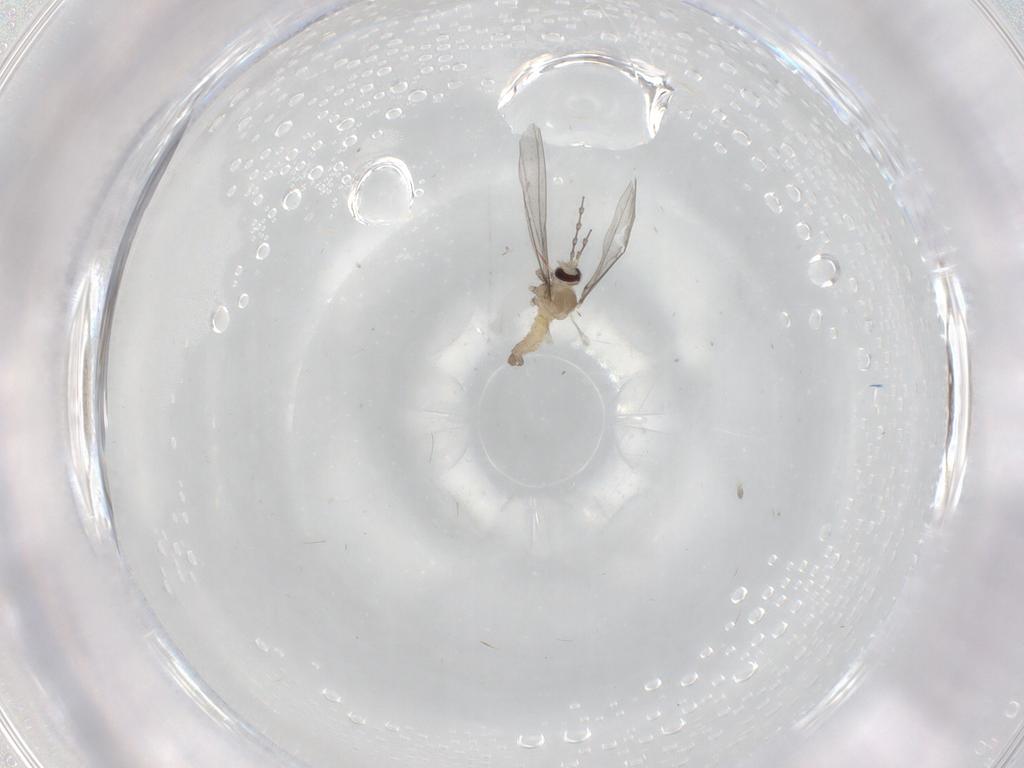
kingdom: Animalia
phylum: Arthropoda
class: Insecta
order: Diptera
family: Cecidomyiidae
